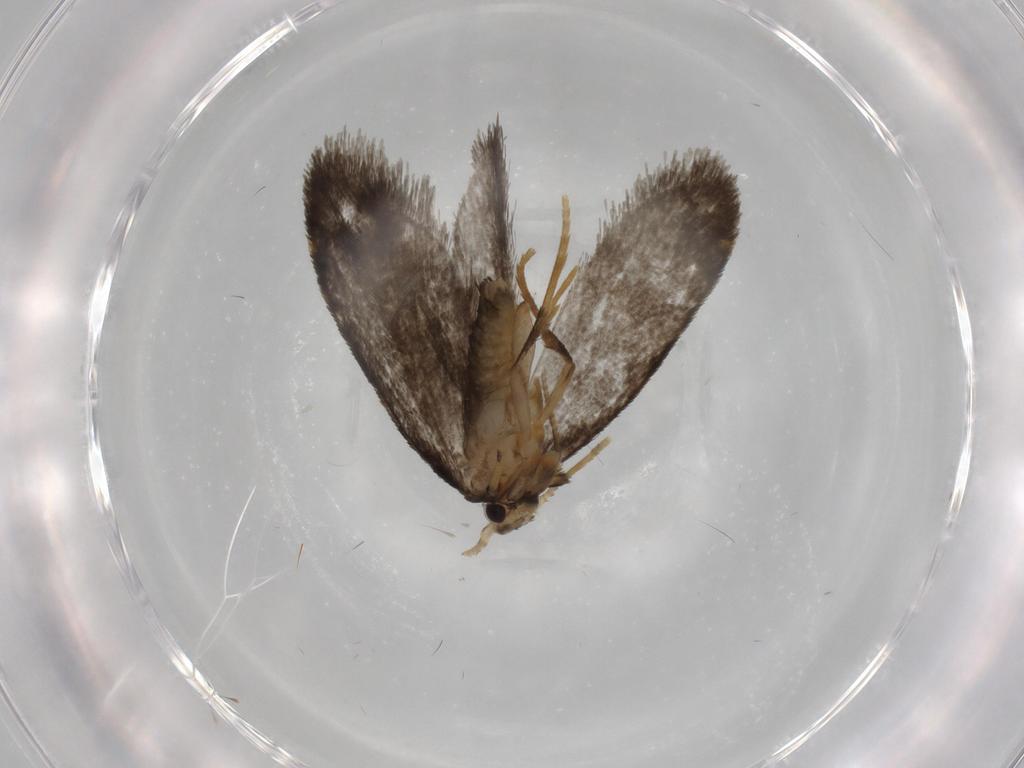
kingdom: Animalia
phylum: Arthropoda
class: Insecta
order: Lepidoptera
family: Psychidae
